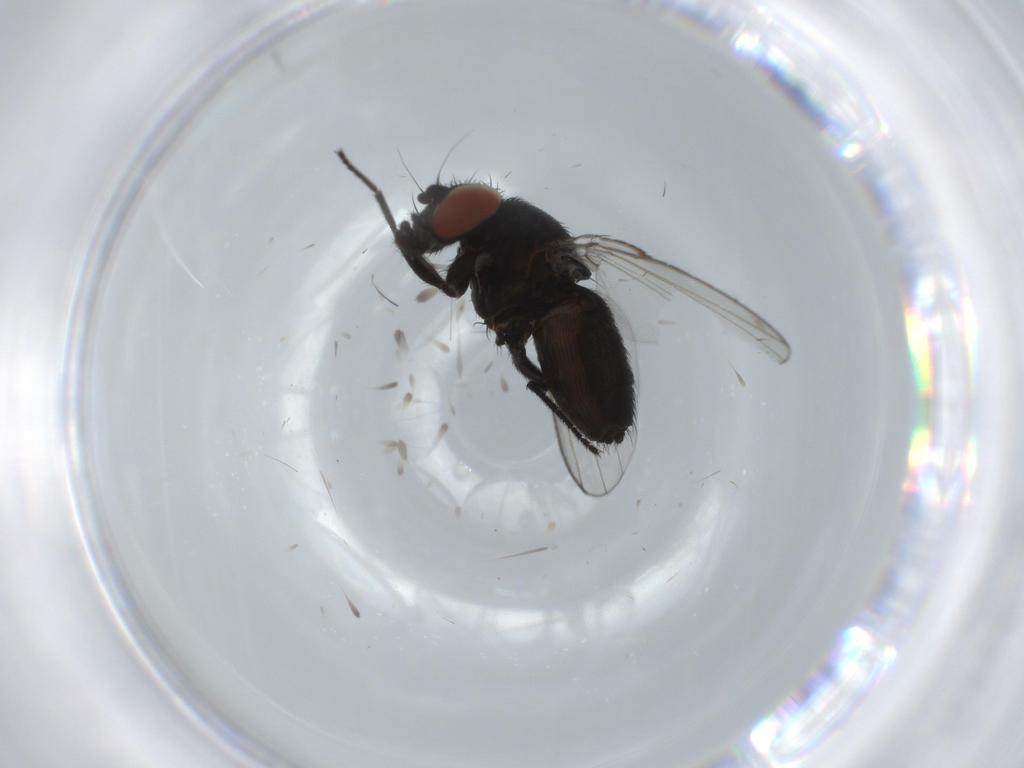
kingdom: Animalia
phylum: Arthropoda
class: Insecta
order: Diptera
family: Milichiidae
